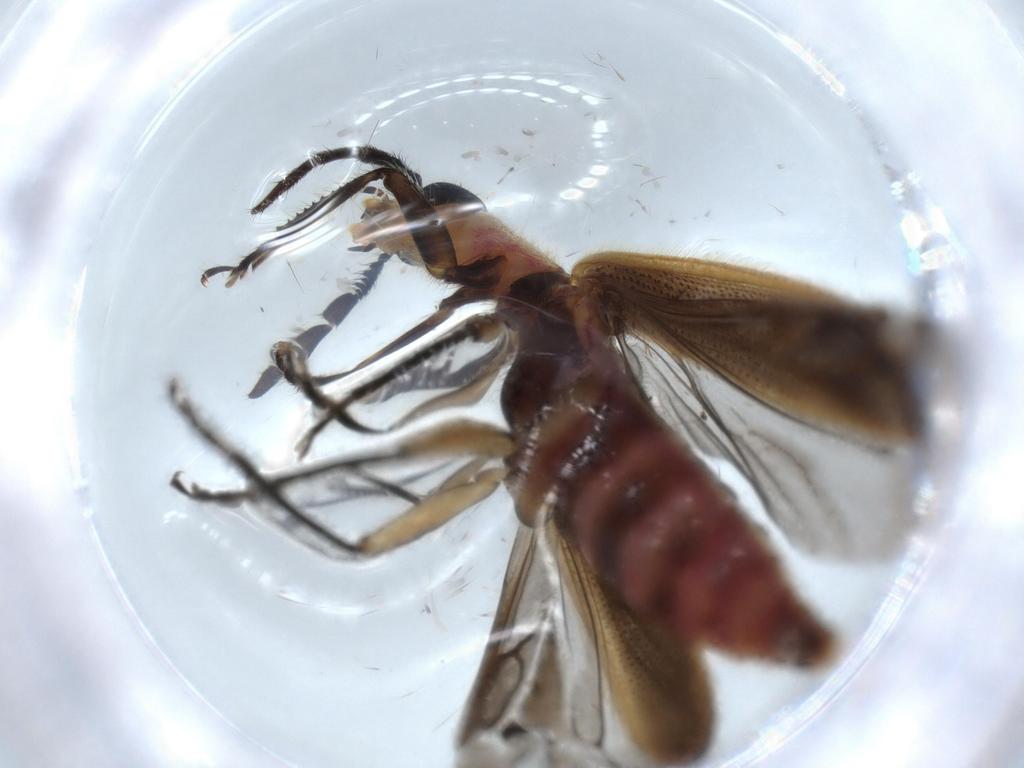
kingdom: Animalia
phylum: Arthropoda
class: Insecta
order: Coleoptera
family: Cleridae
